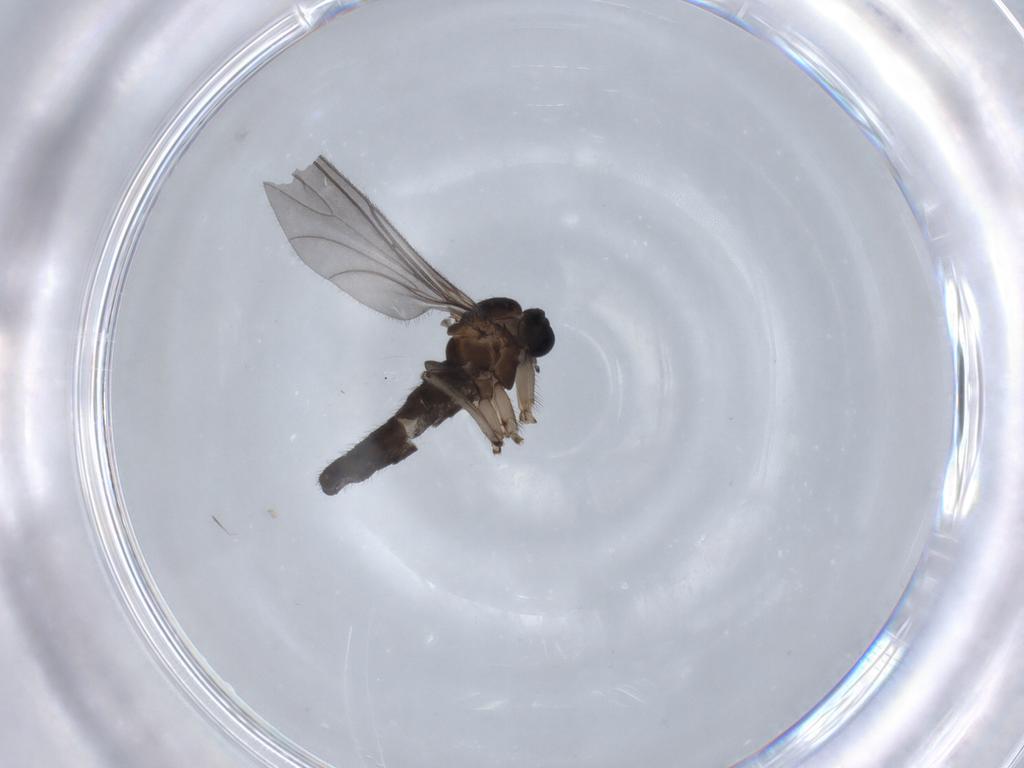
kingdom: Animalia
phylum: Arthropoda
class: Insecta
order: Diptera
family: Sciaridae
